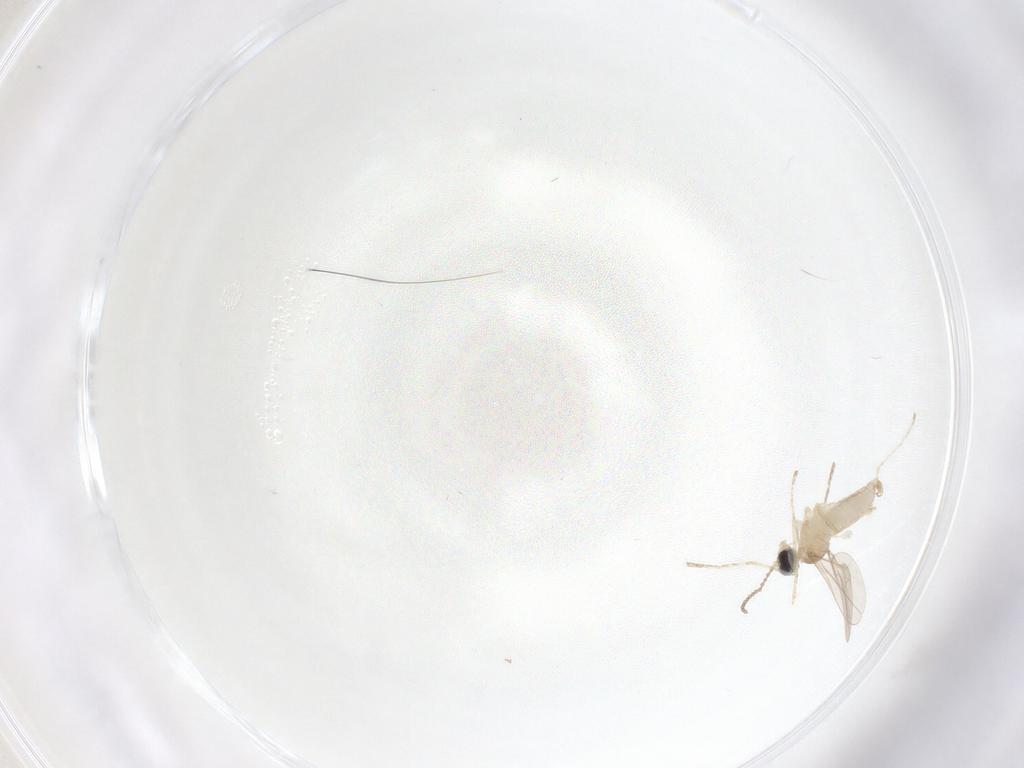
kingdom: Animalia
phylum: Arthropoda
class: Insecta
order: Diptera
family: Cecidomyiidae
